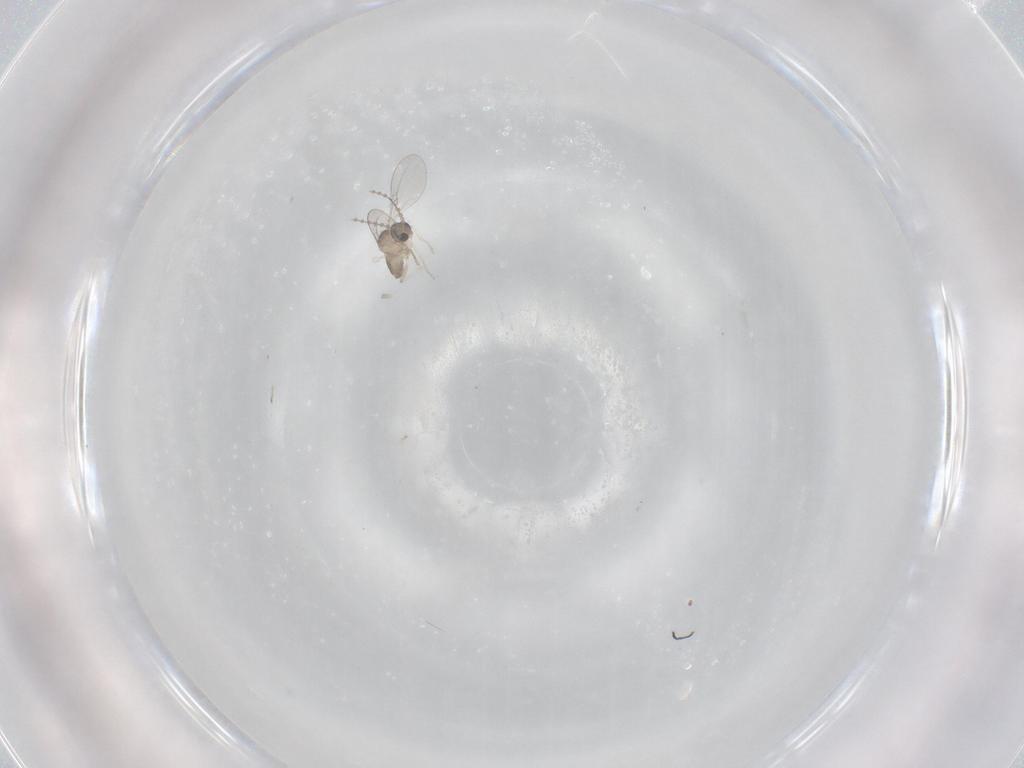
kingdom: Animalia
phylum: Arthropoda
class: Insecta
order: Diptera
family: Cecidomyiidae
